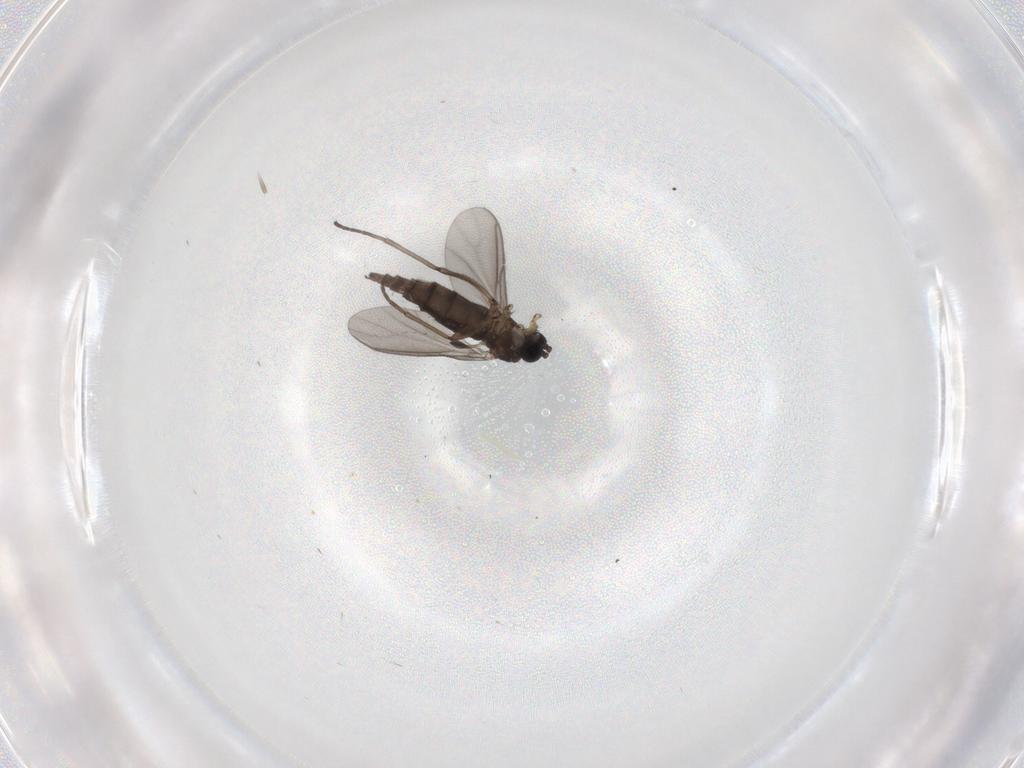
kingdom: Animalia
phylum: Arthropoda
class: Insecta
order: Diptera
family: Sciaridae
